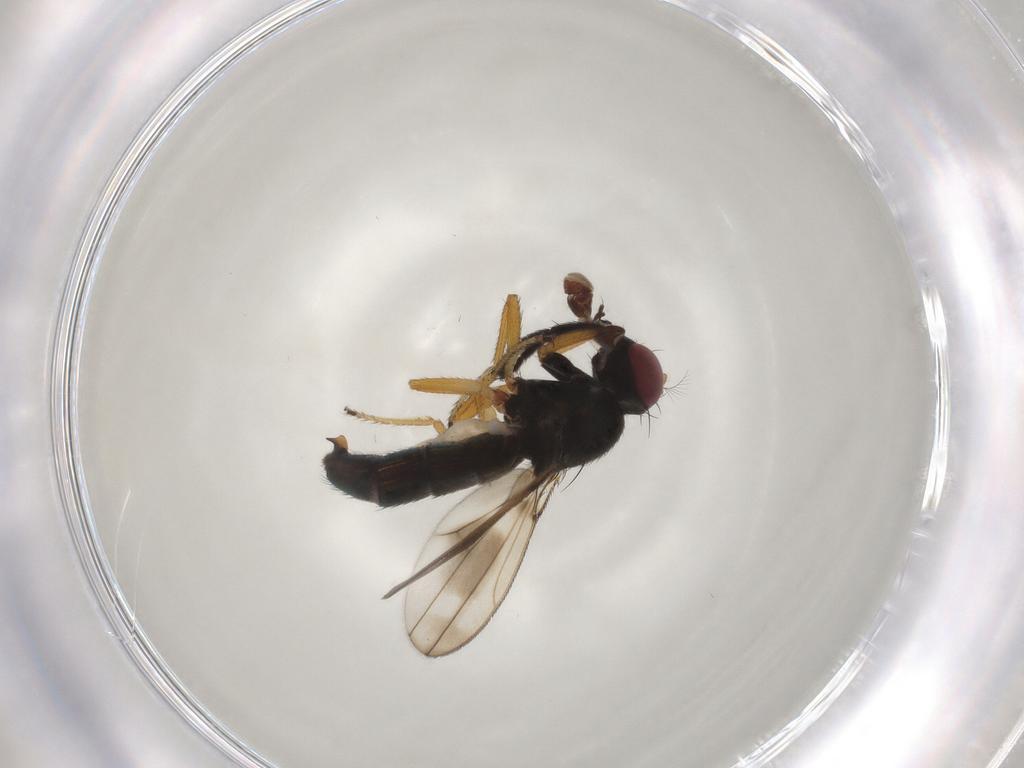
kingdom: Animalia
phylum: Arthropoda
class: Insecta
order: Diptera
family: Ephydridae
